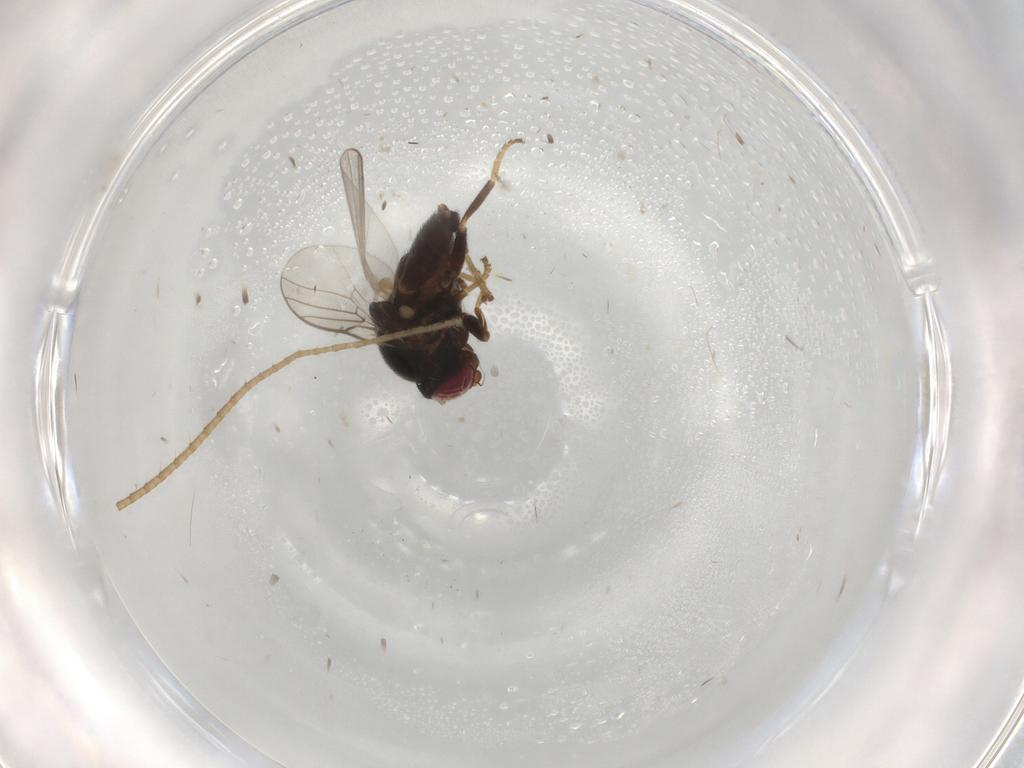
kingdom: Animalia
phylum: Arthropoda
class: Insecta
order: Diptera
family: Chloropidae
